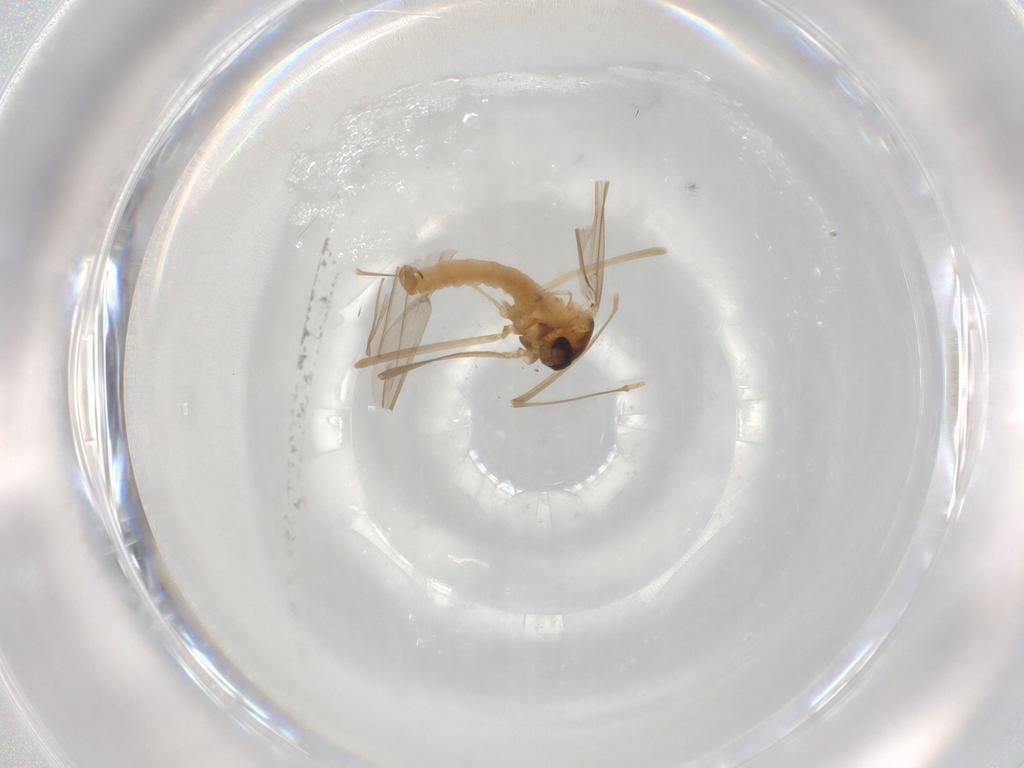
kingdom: Animalia
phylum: Arthropoda
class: Insecta
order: Diptera
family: Cecidomyiidae
